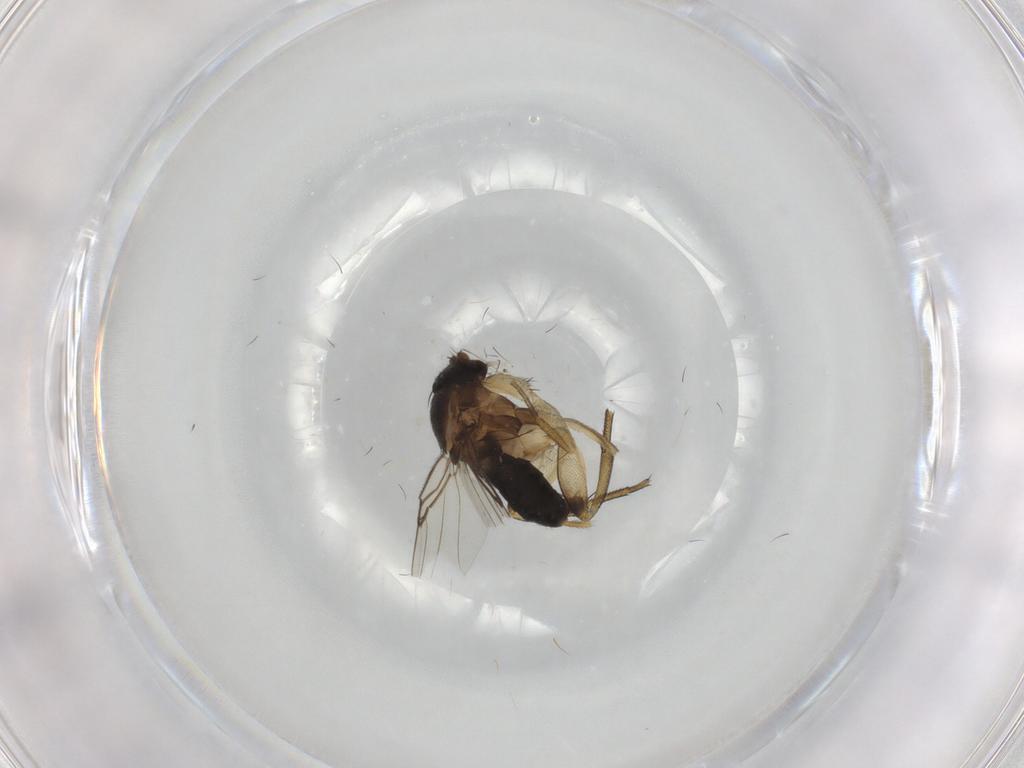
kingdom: Animalia
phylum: Arthropoda
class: Insecta
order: Diptera
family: Phoridae
